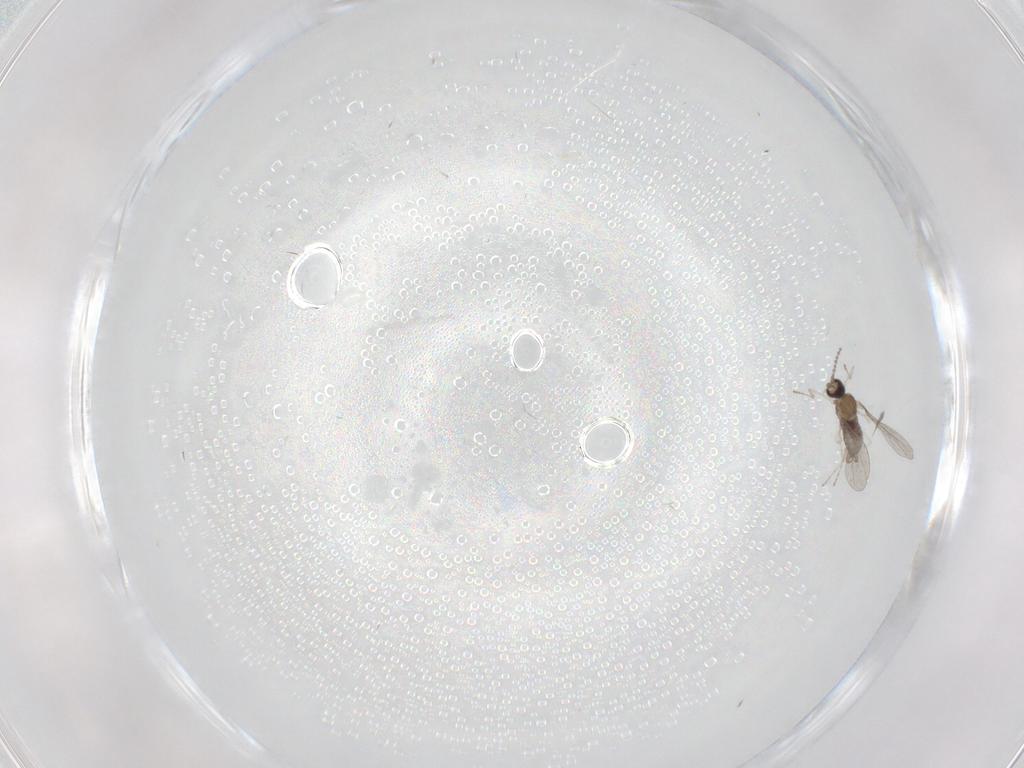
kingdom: Animalia
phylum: Arthropoda
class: Insecta
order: Diptera
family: Cecidomyiidae
